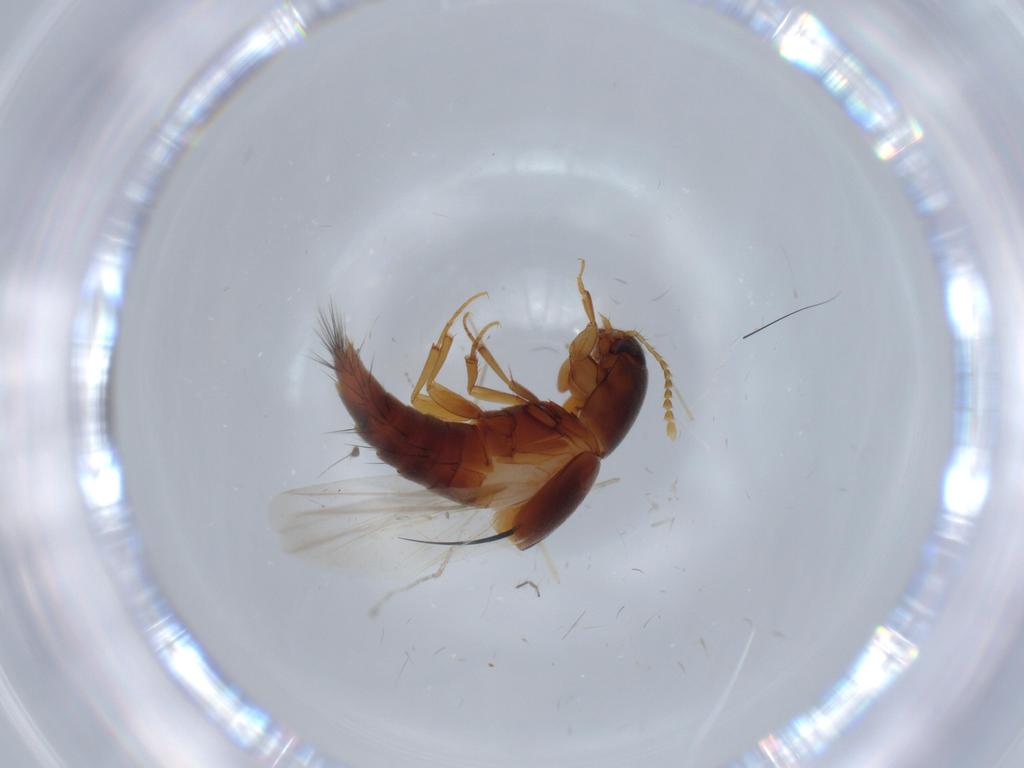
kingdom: Animalia
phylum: Arthropoda
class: Insecta
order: Coleoptera
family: Staphylinidae
